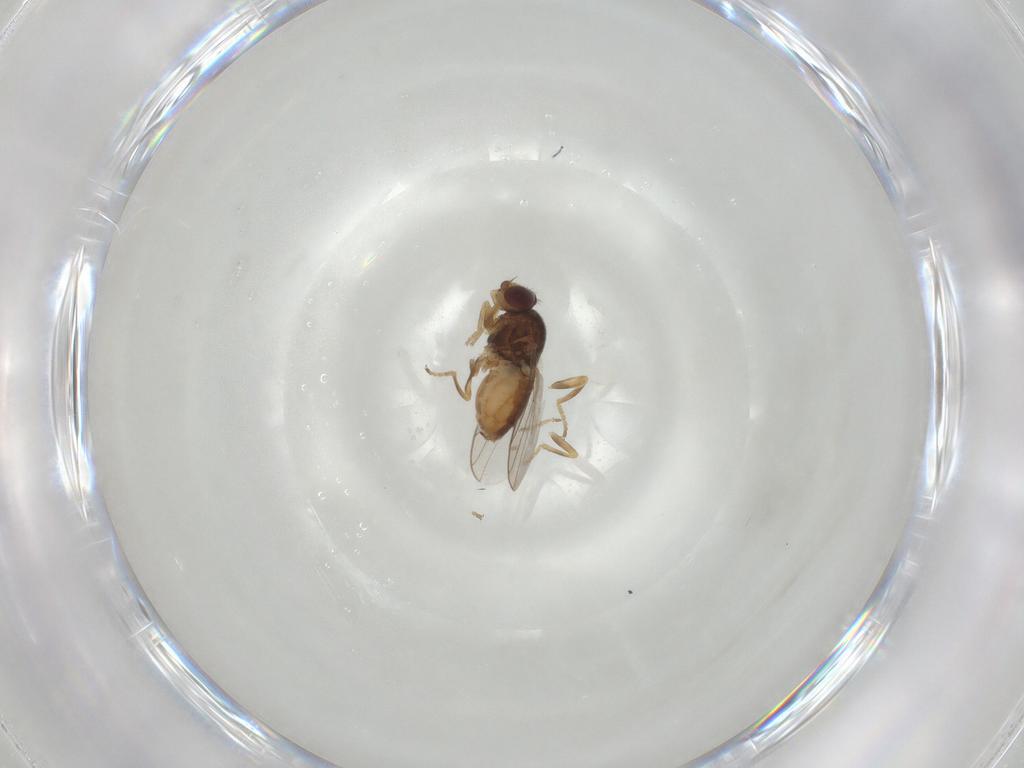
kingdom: Animalia
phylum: Arthropoda
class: Insecta
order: Diptera
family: Chloropidae
